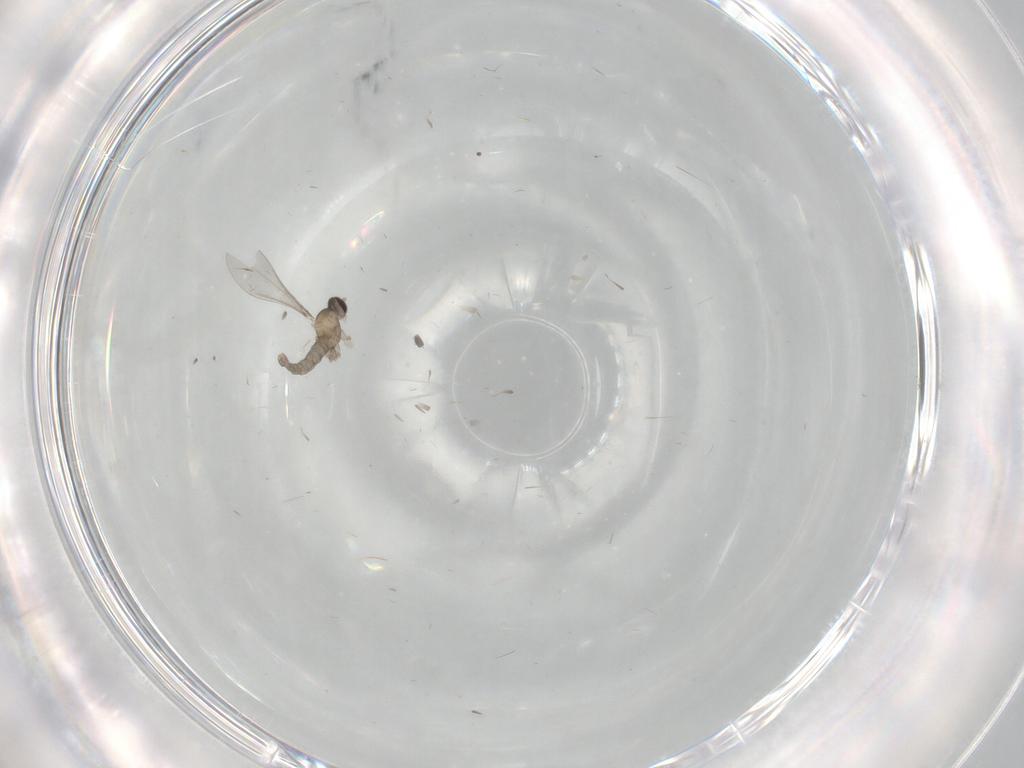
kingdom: Animalia
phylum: Arthropoda
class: Insecta
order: Diptera
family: Cecidomyiidae
